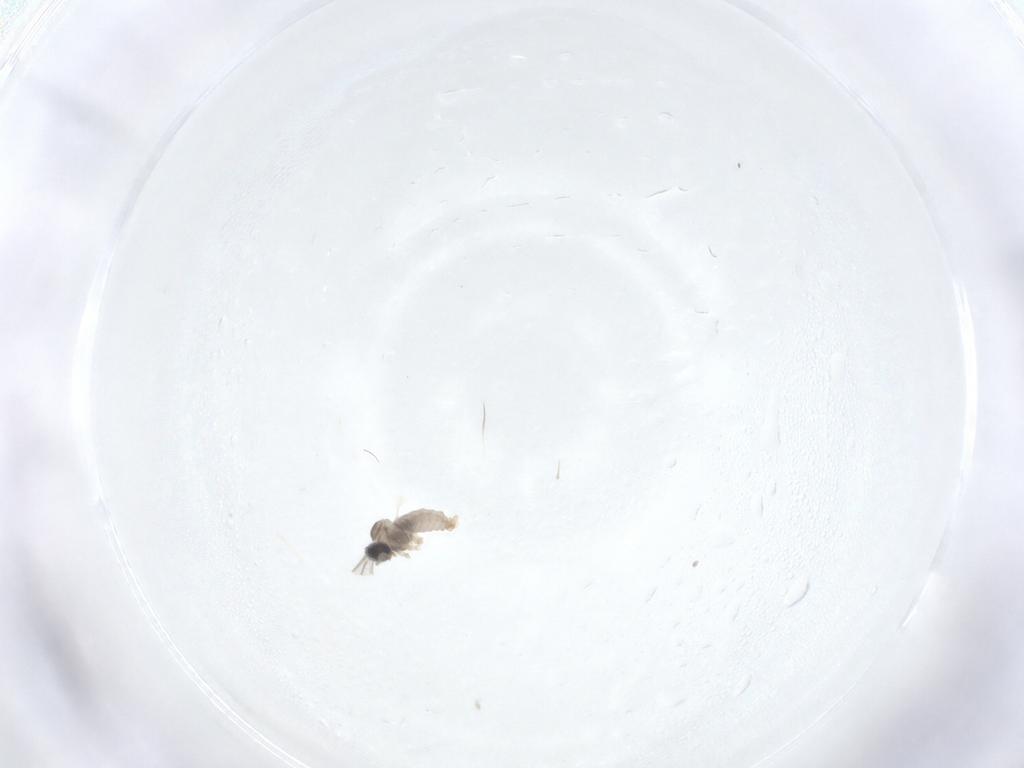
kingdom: Animalia
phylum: Arthropoda
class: Insecta
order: Diptera
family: Cecidomyiidae
